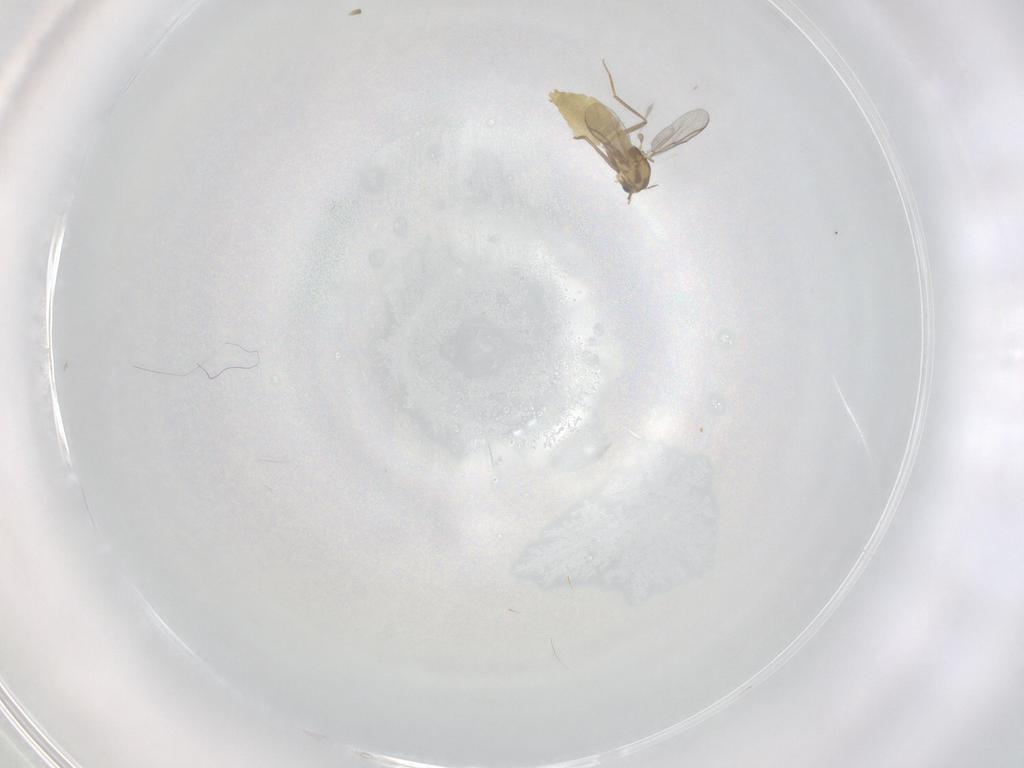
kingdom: Animalia
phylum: Arthropoda
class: Insecta
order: Diptera
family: Chironomidae
